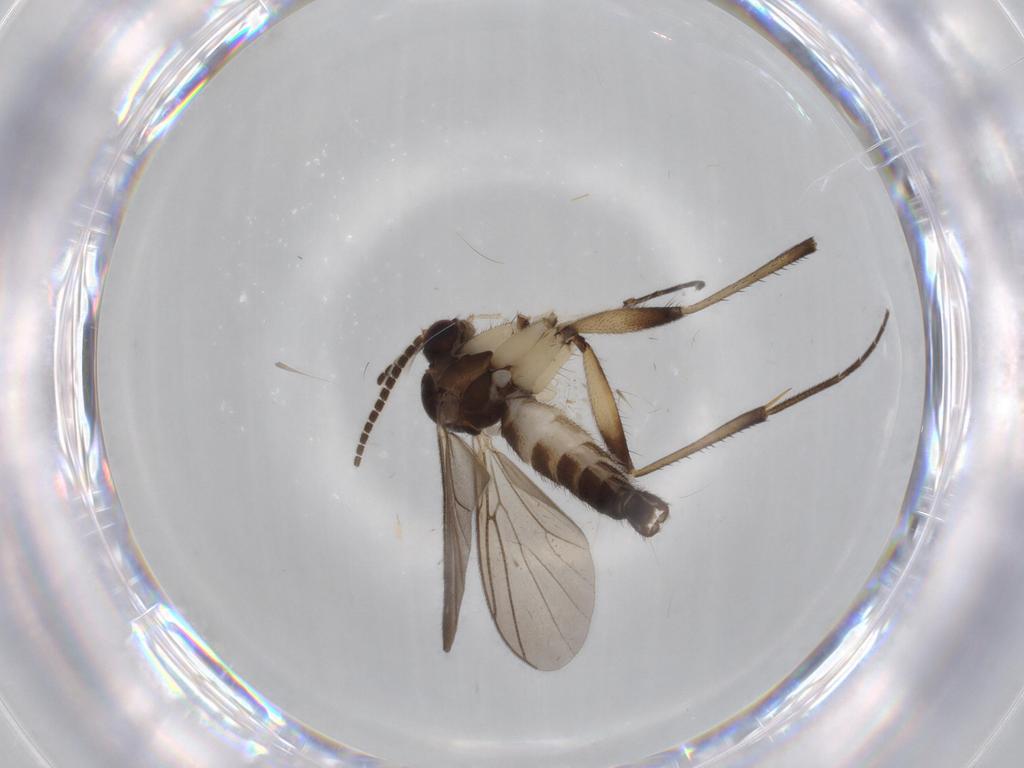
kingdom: Animalia
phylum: Arthropoda
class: Insecta
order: Diptera
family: Mycetophilidae
